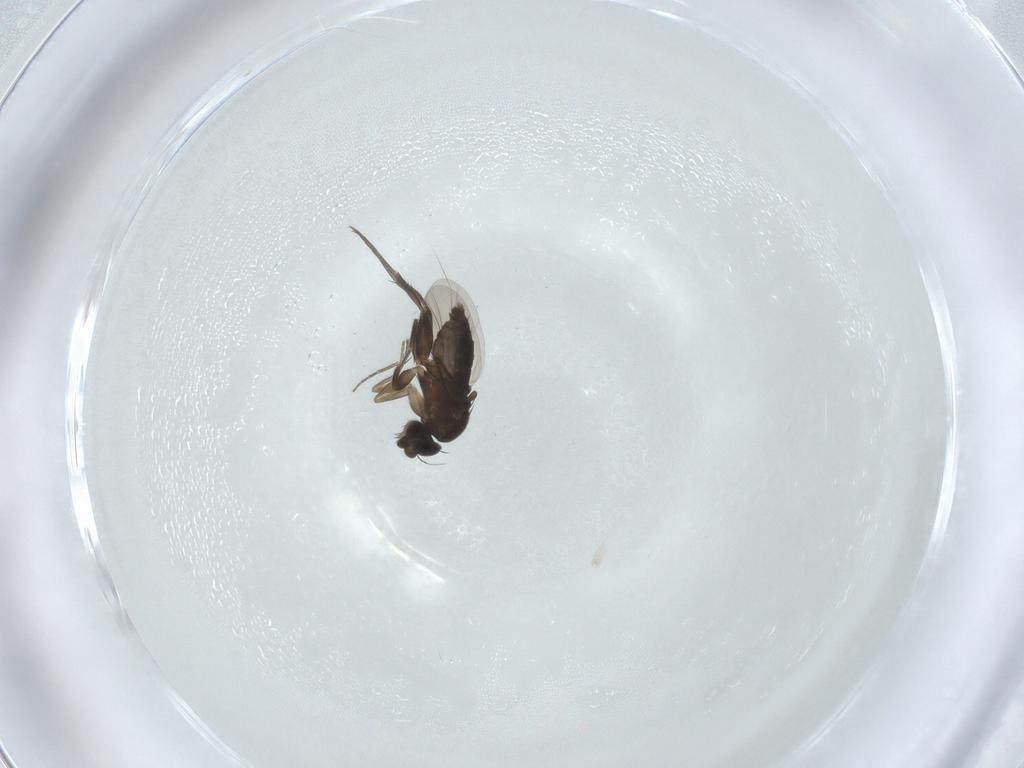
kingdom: Animalia
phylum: Arthropoda
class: Insecta
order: Diptera
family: Phoridae
